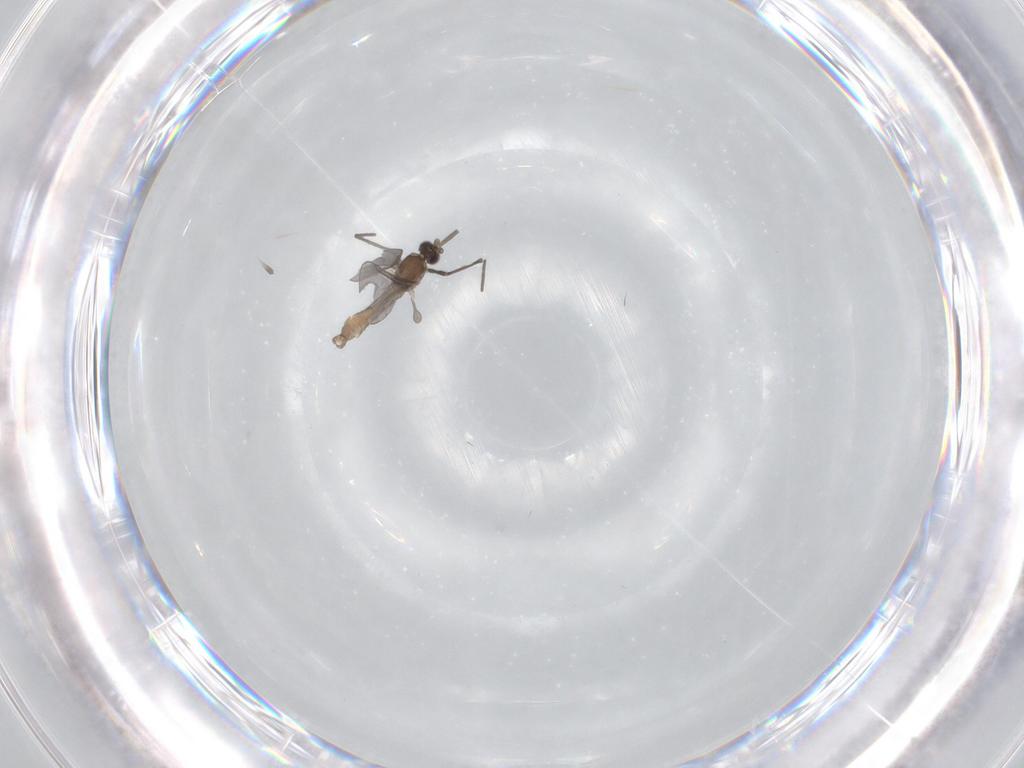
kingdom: Animalia
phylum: Arthropoda
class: Insecta
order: Diptera
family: Cecidomyiidae
